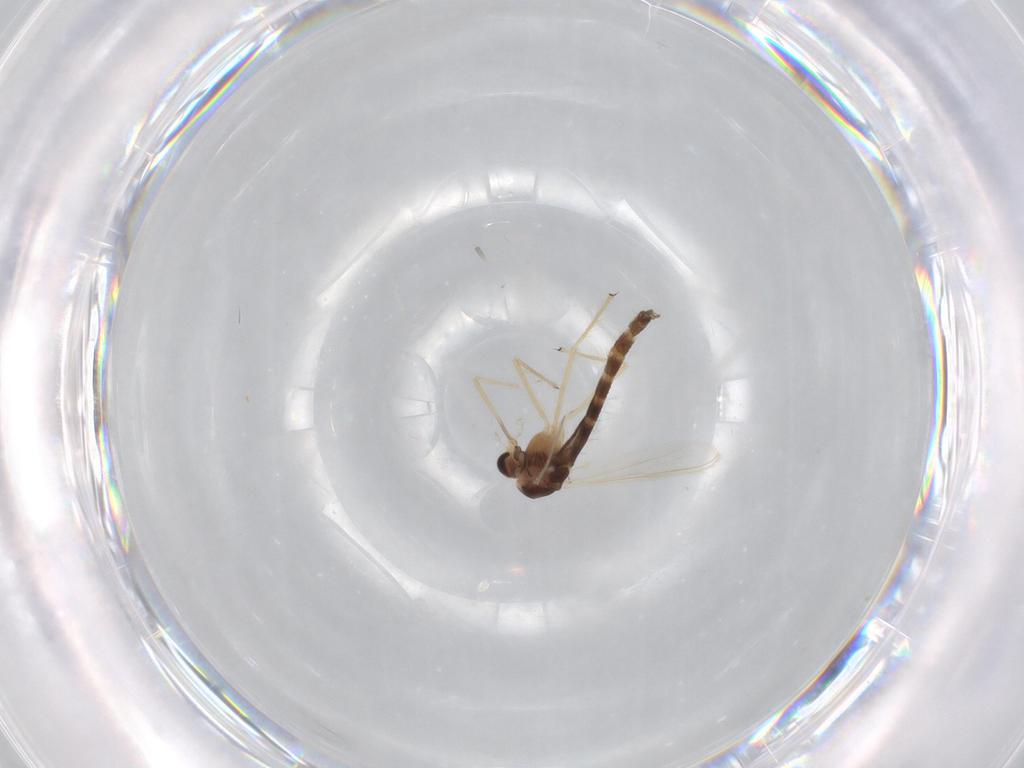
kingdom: Animalia
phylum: Arthropoda
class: Insecta
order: Diptera
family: Chironomidae
